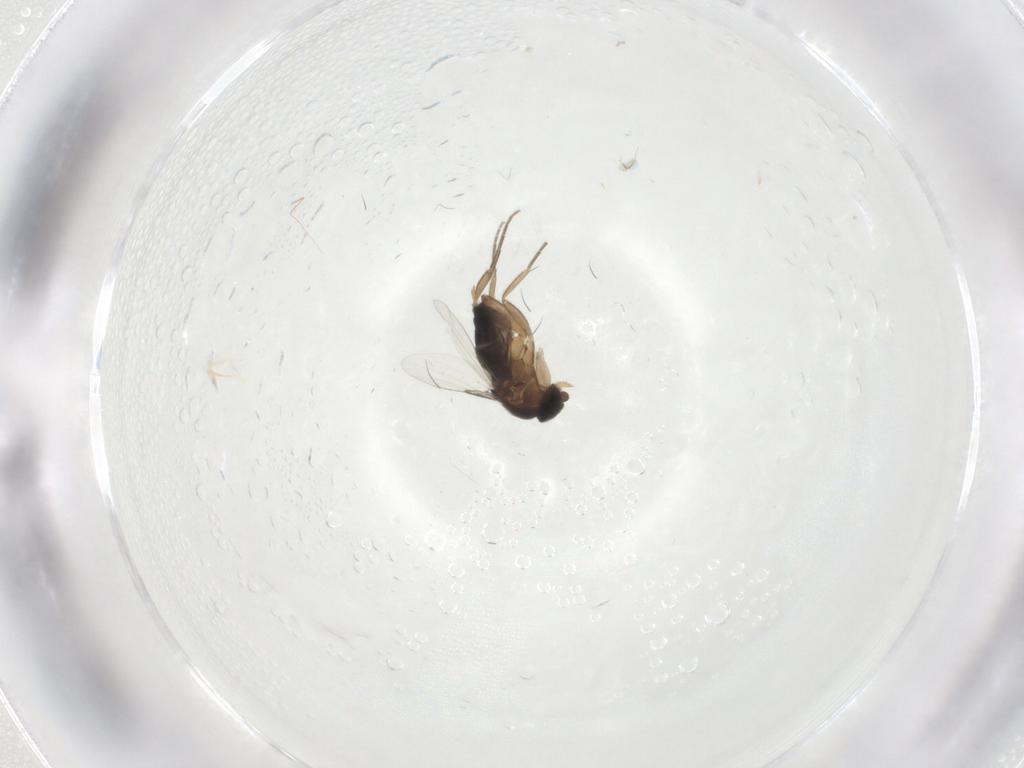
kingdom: Animalia
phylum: Arthropoda
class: Insecta
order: Diptera
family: Phoridae
